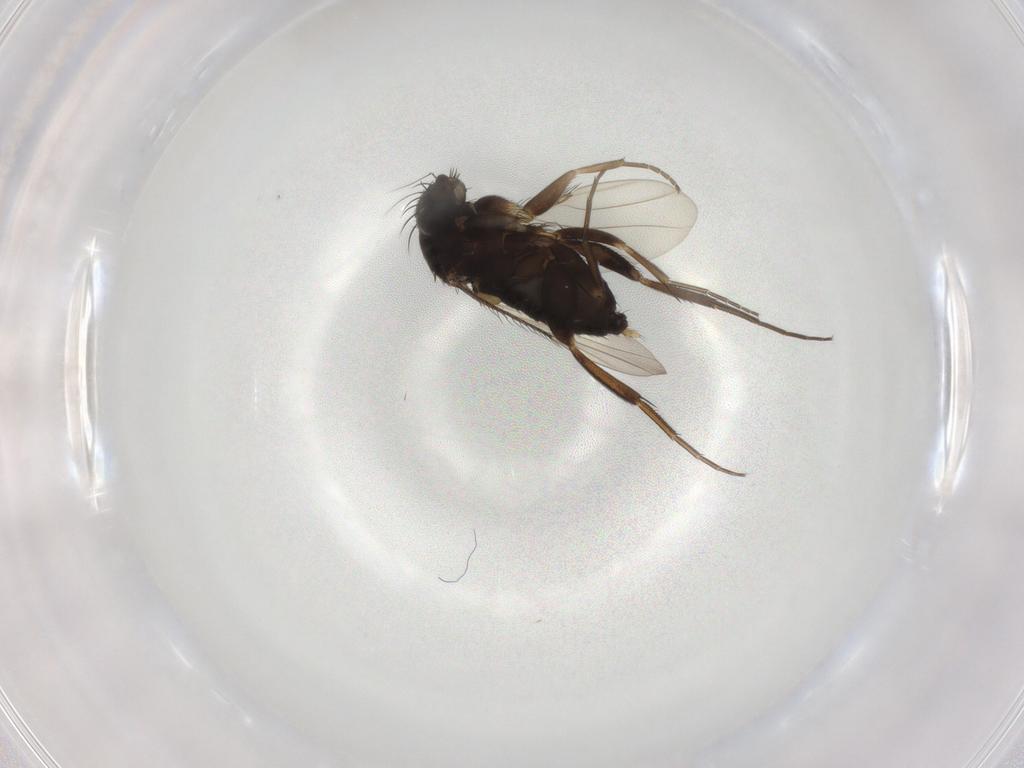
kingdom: Animalia
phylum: Arthropoda
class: Insecta
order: Diptera
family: Phoridae
